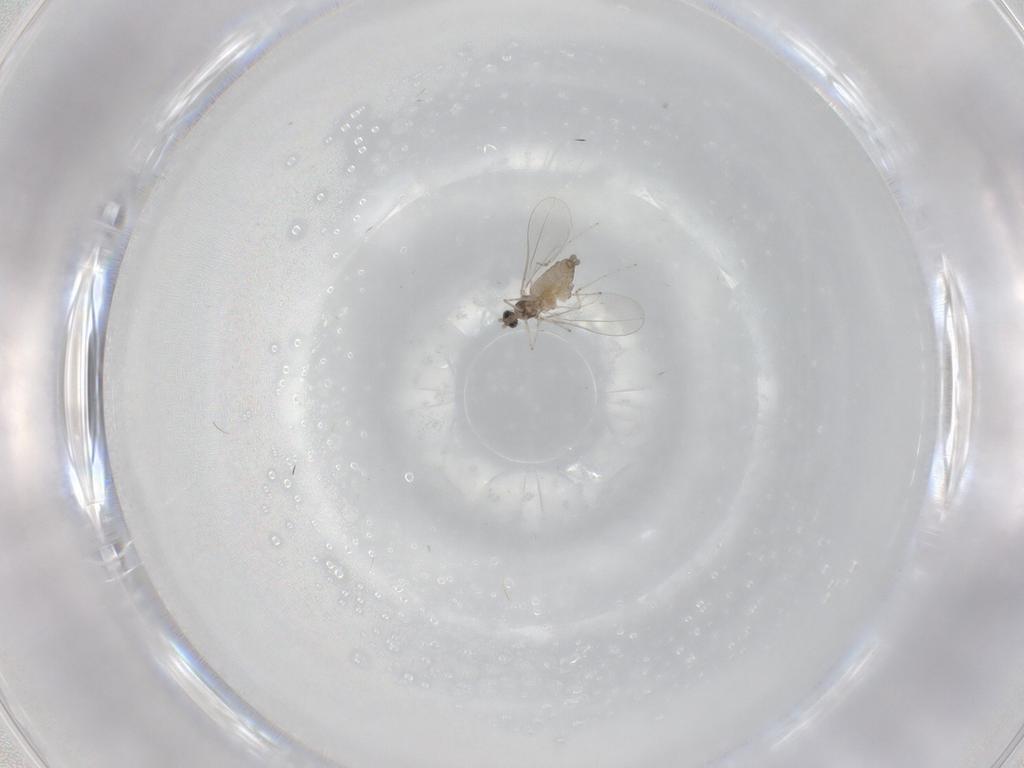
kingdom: Animalia
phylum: Arthropoda
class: Insecta
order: Diptera
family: Cecidomyiidae
